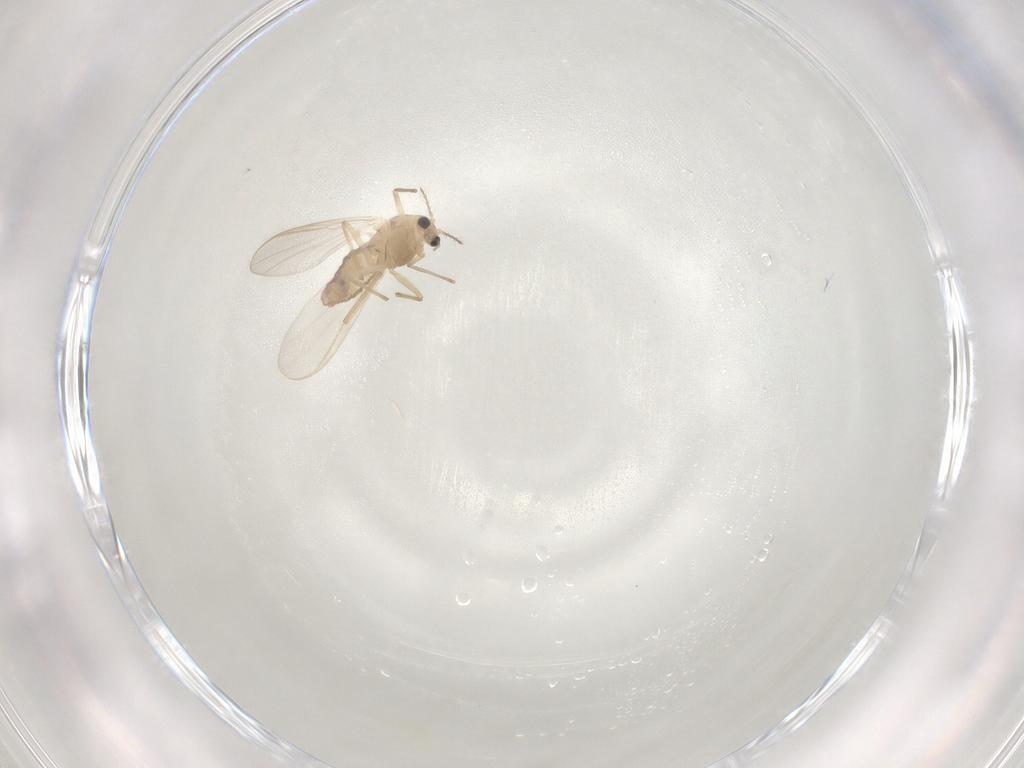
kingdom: Animalia
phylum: Arthropoda
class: Insecta
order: Diptera
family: Chironomidae
